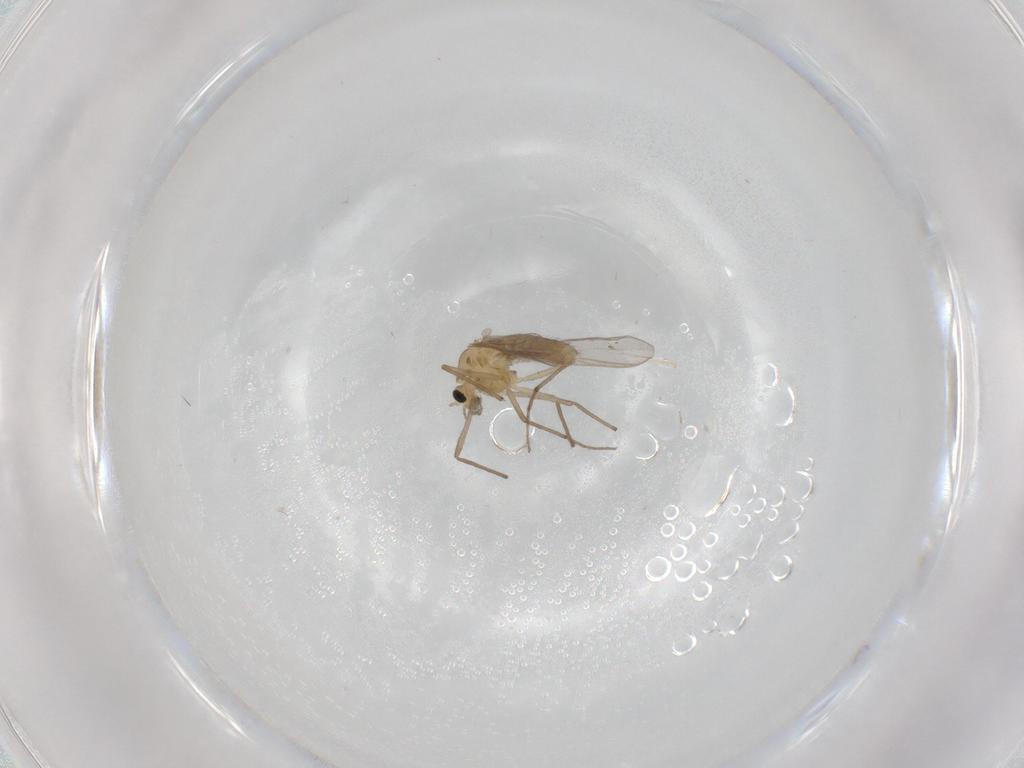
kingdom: Animalia
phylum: Arthropoda
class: Insecta
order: Diptera
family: Chironomidae
